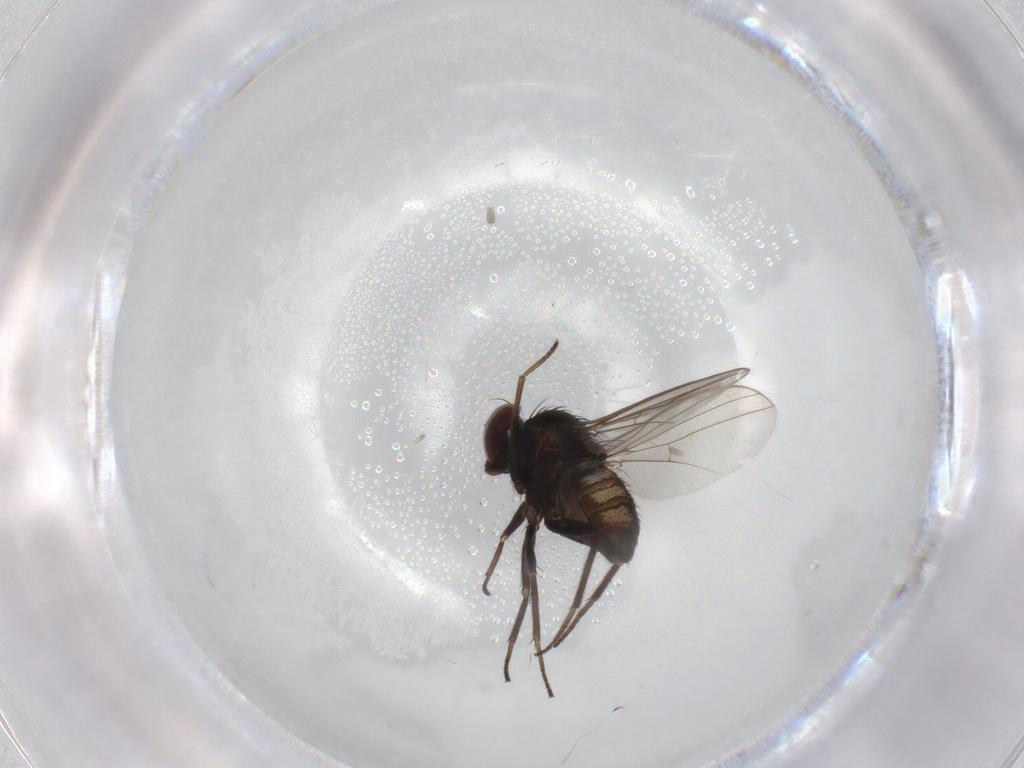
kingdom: Animalia
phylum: Arthropoda
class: Insecta
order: Diptera
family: Dolichopodidae
